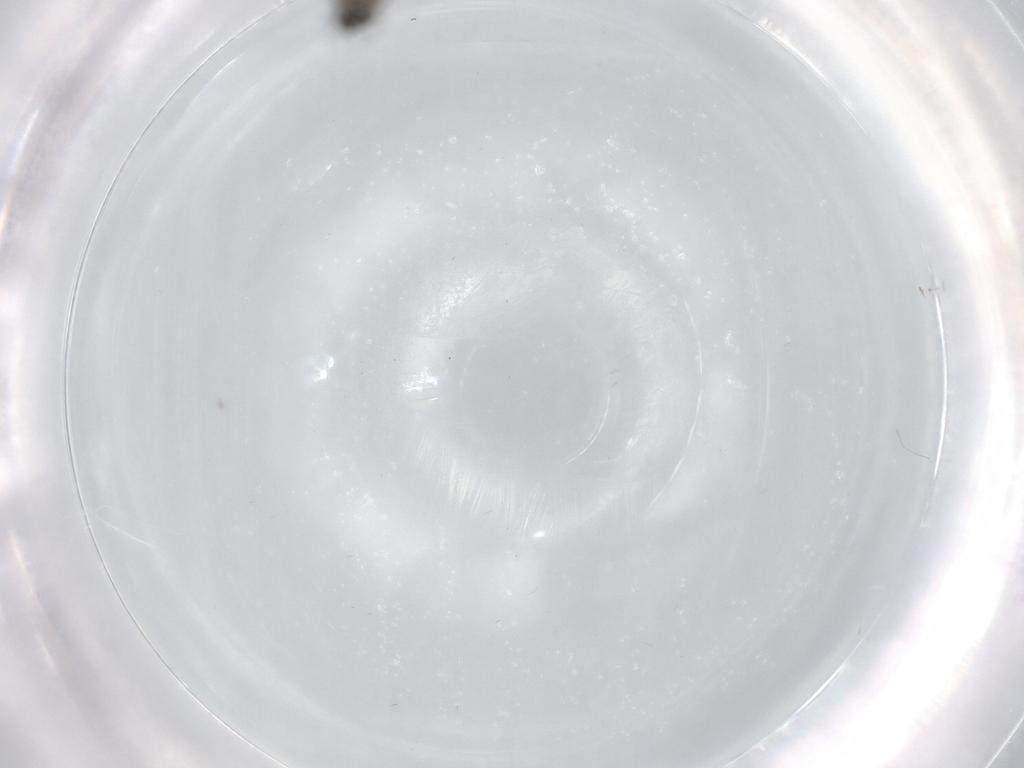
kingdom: Animalia
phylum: Arthropoda
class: Insecta
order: Diptera
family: Phoridae
